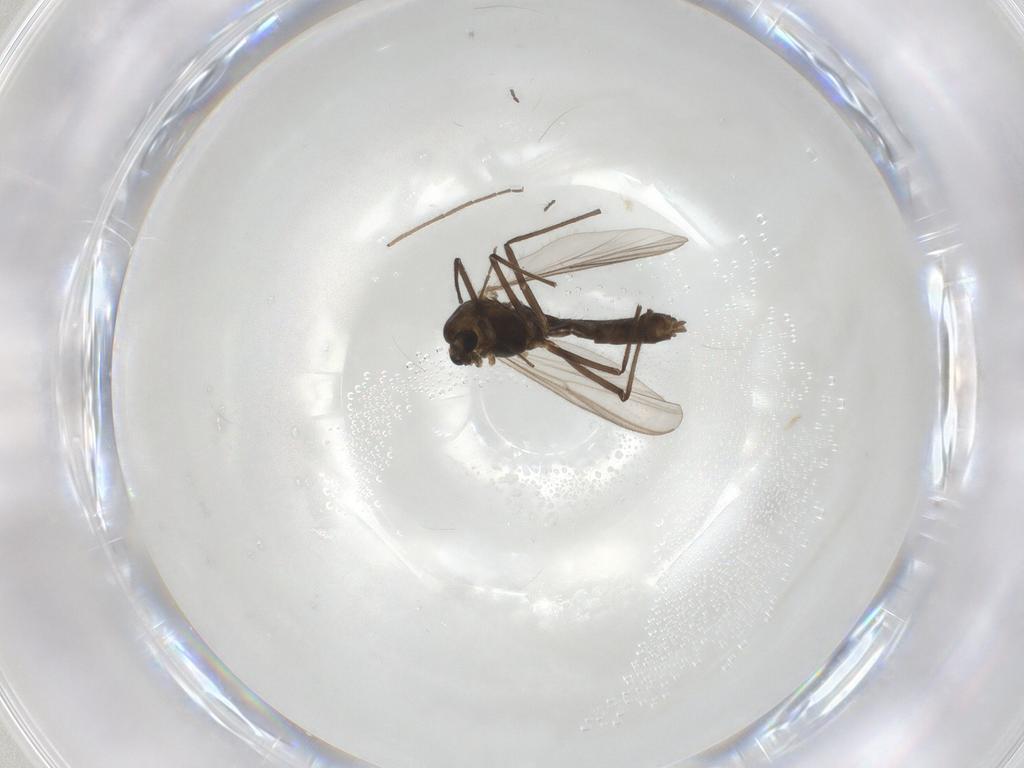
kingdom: Animalia
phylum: Arthropoda
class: Insecta
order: Diptera
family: Chironomidae
